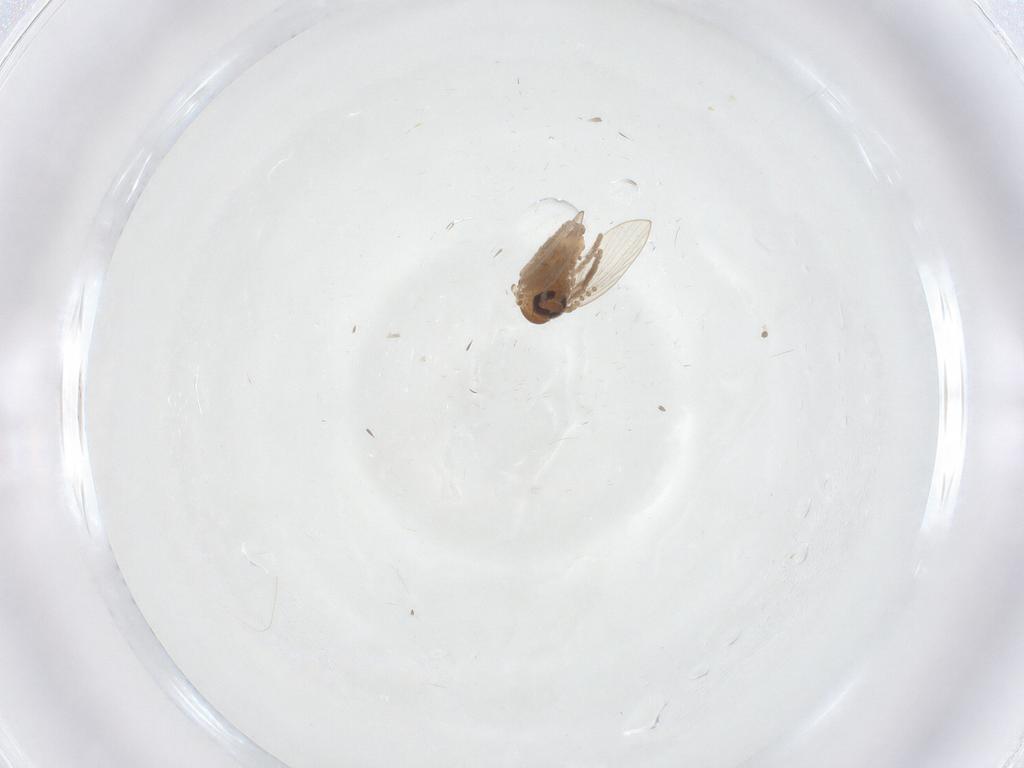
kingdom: Animalia
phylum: Arthropoda
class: Insecta
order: Diptera
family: Psychodidae
